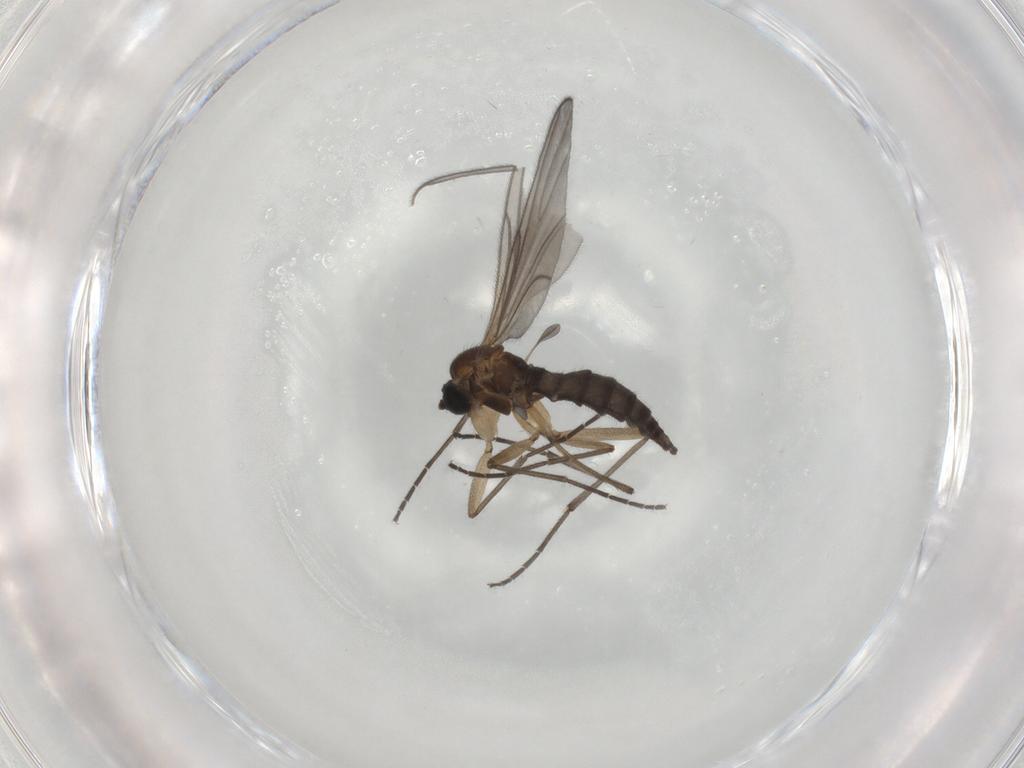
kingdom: Animalia
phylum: Arthropoda
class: Insecta
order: Diptera
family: Sciaridae
